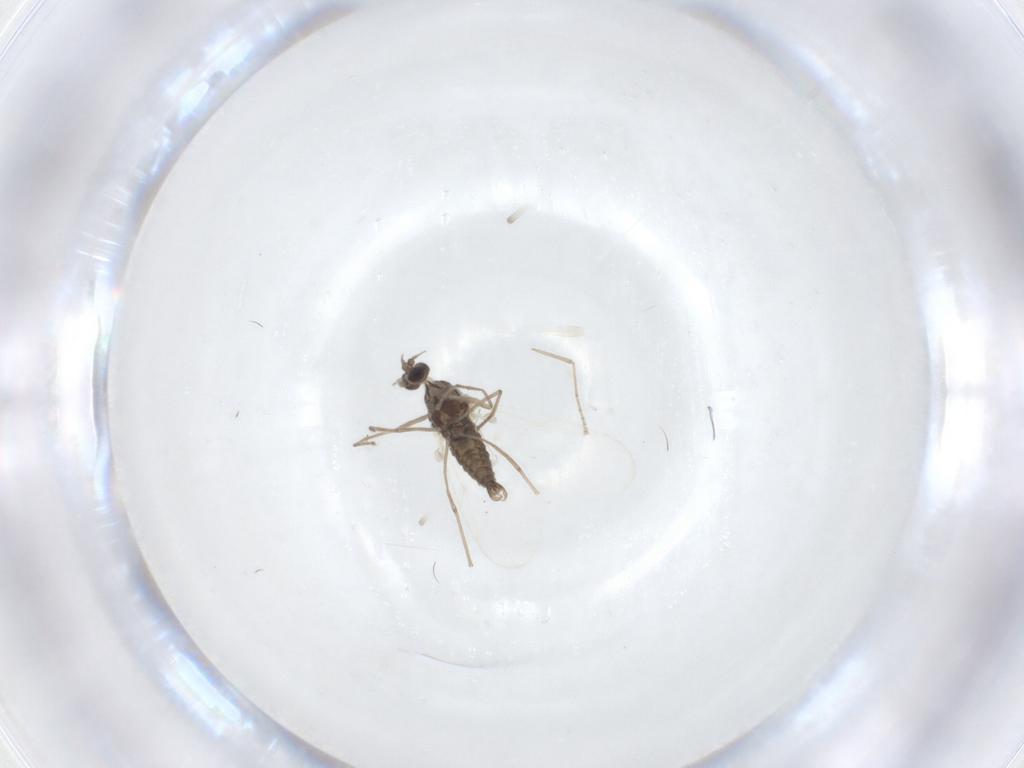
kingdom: Animalia
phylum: Arthropoda
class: Insecta
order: Diptera
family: Cecidomyiidae
